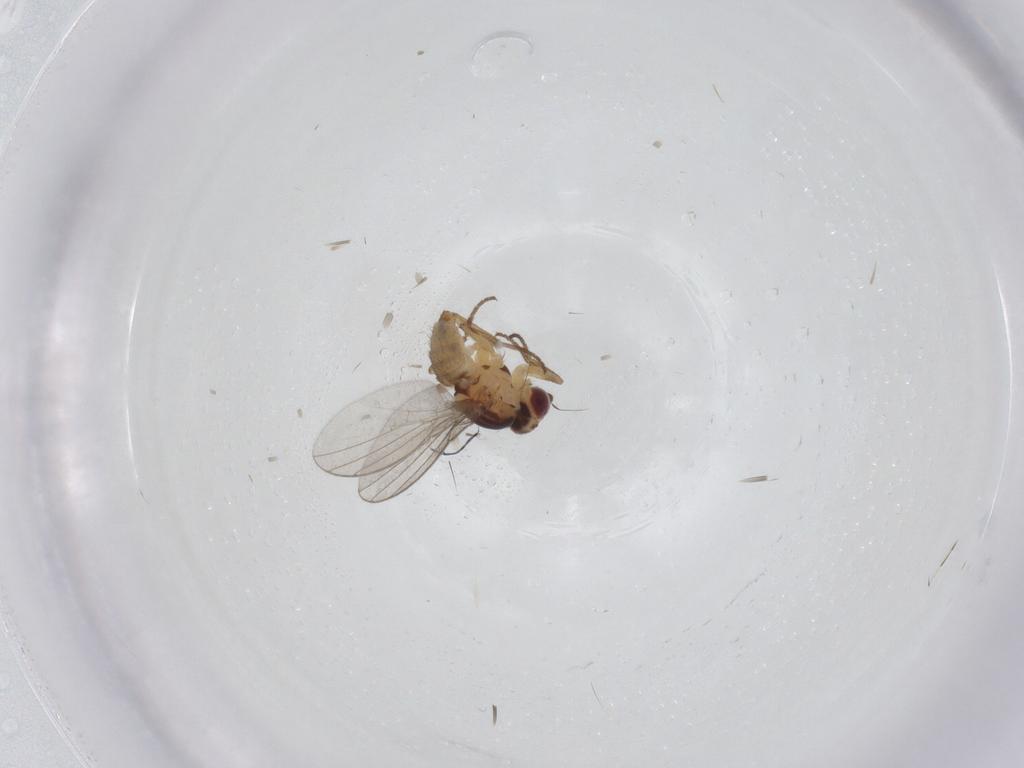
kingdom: Animalia
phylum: Arthropoda
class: Insecta
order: Diptera
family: Agromyzidae
